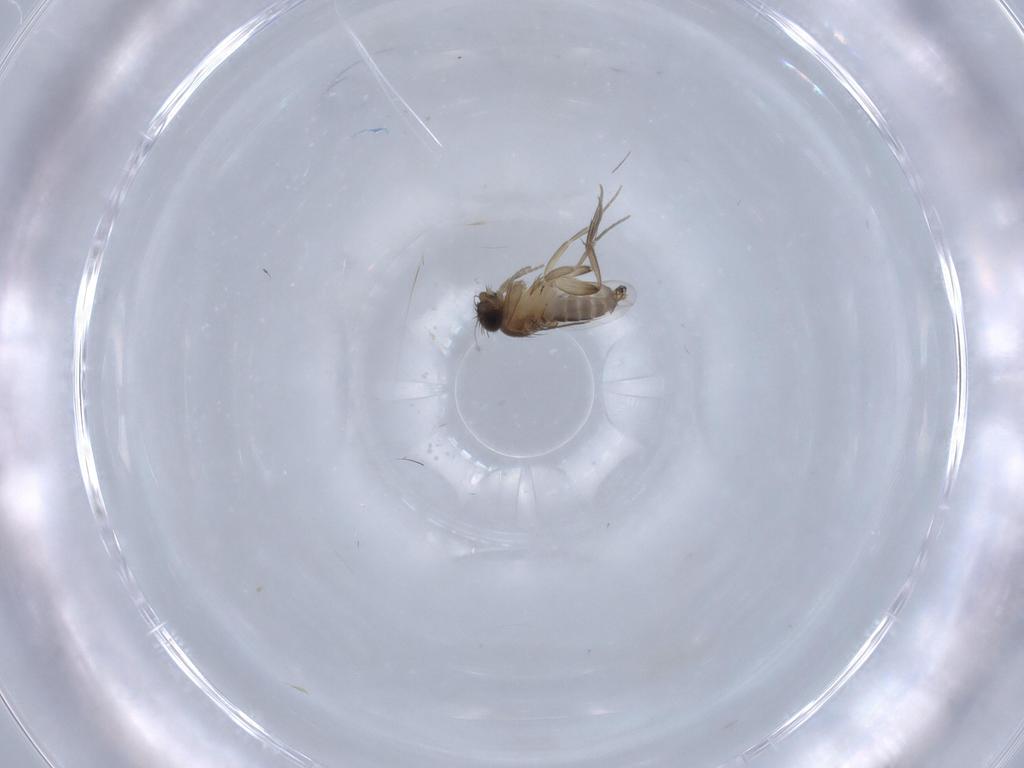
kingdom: Animalia
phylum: Arthropoda
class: Insecta
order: Diptera
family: Phoridae
